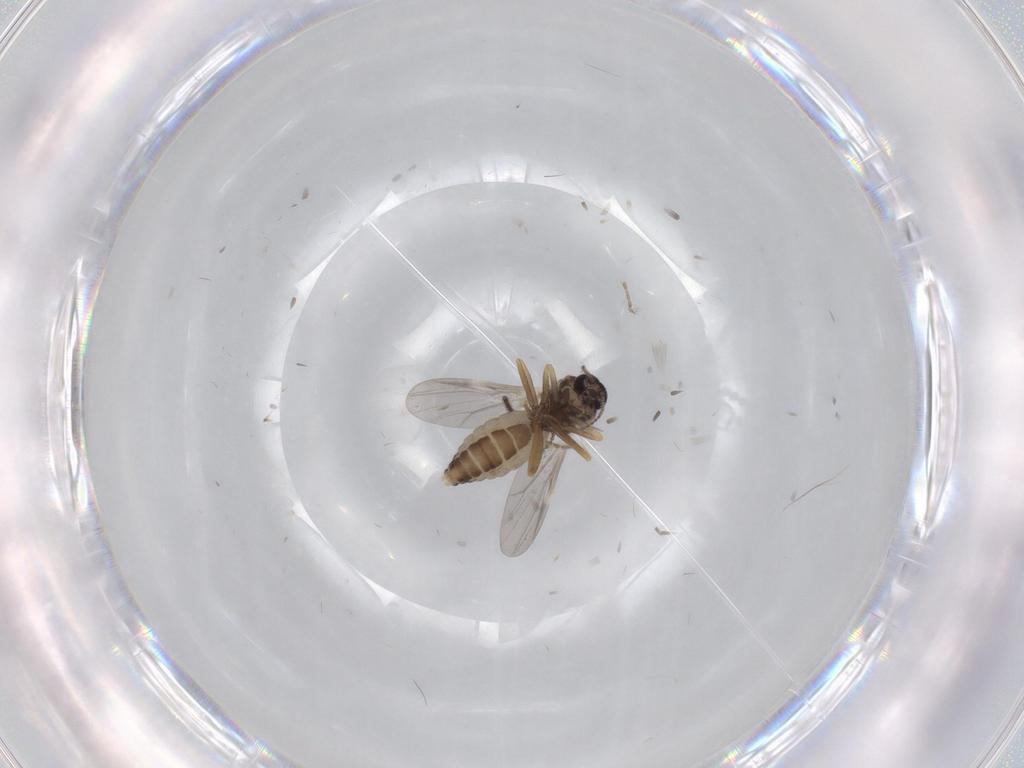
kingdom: Animalia
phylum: Arthropoda
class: Insecta
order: Diptera
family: Ceratopogonidae
